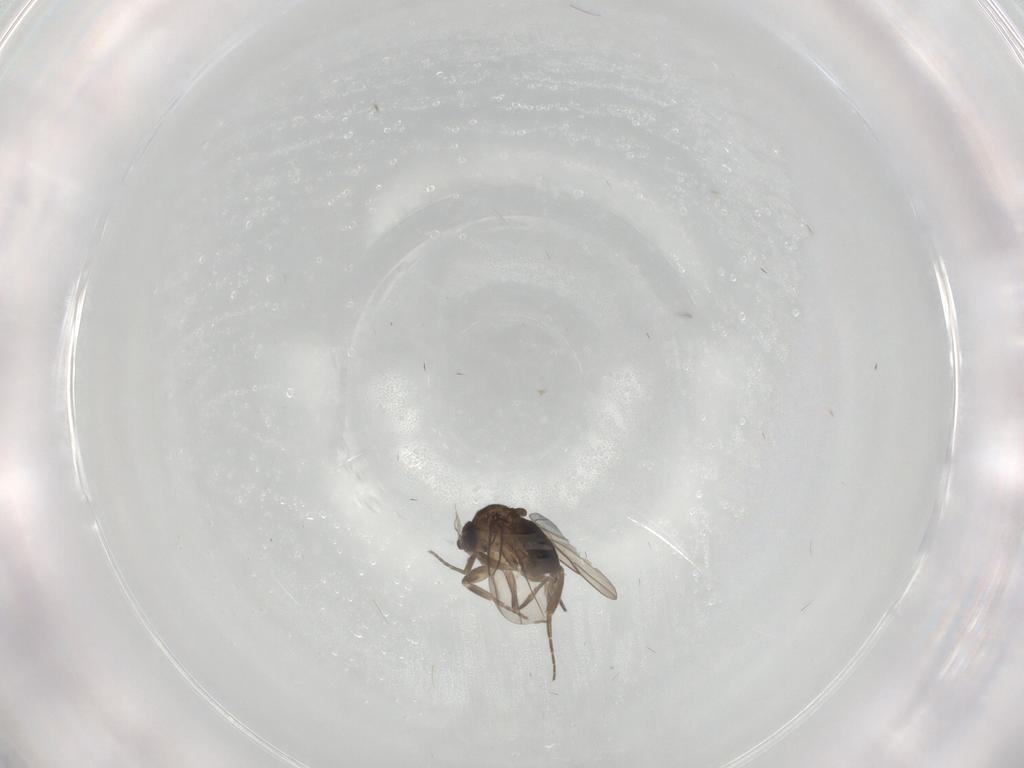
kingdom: Animalia
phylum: Arthropoda
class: Insecta
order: Diptera
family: Phoridae
